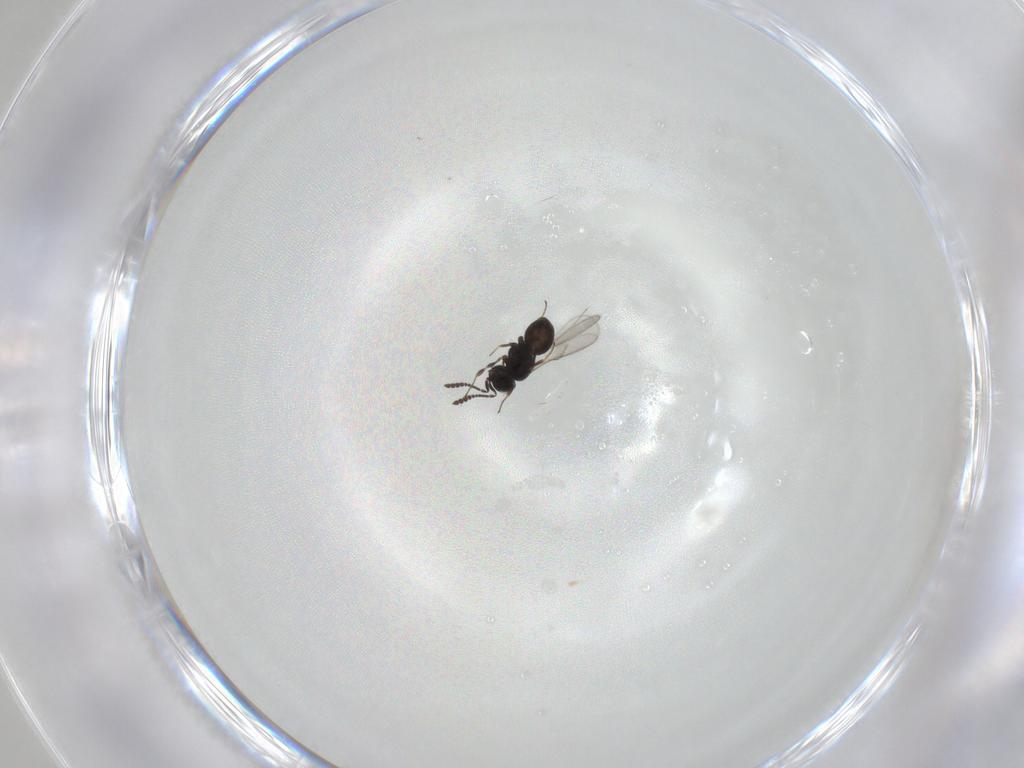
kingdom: Animalia
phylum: Arthropoda
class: Insecta
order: Hymenoptera
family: Scelionidae
